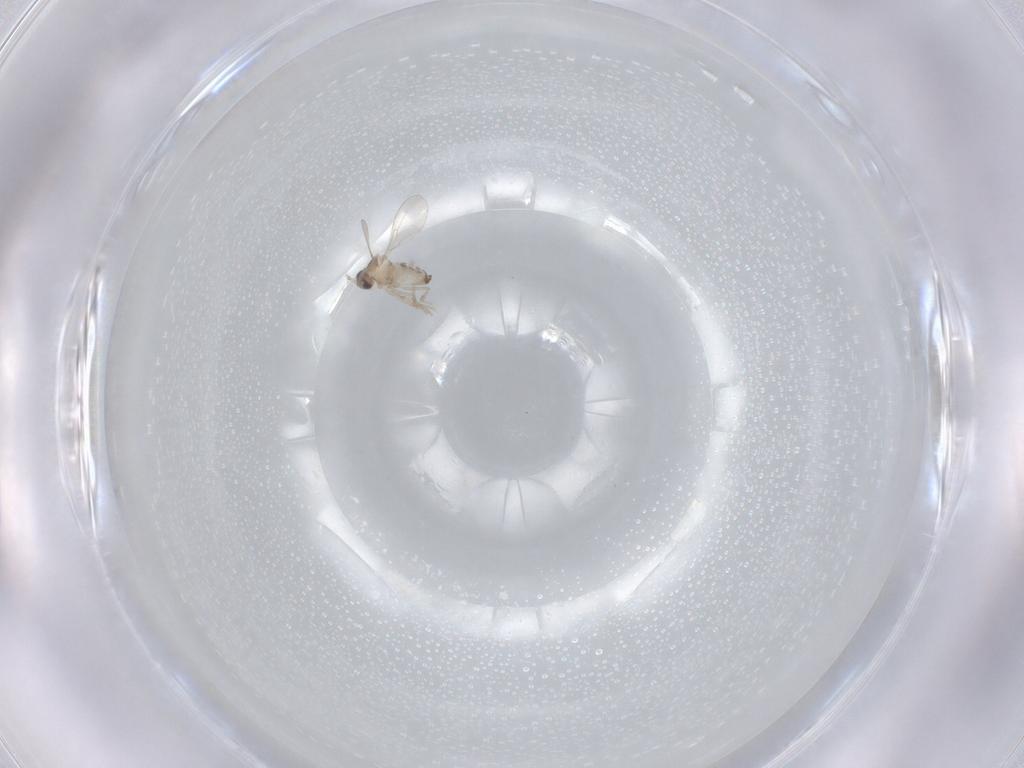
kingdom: Animalia
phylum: Arthropoda
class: Insecta
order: Diptera
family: Cecidomyiidae
